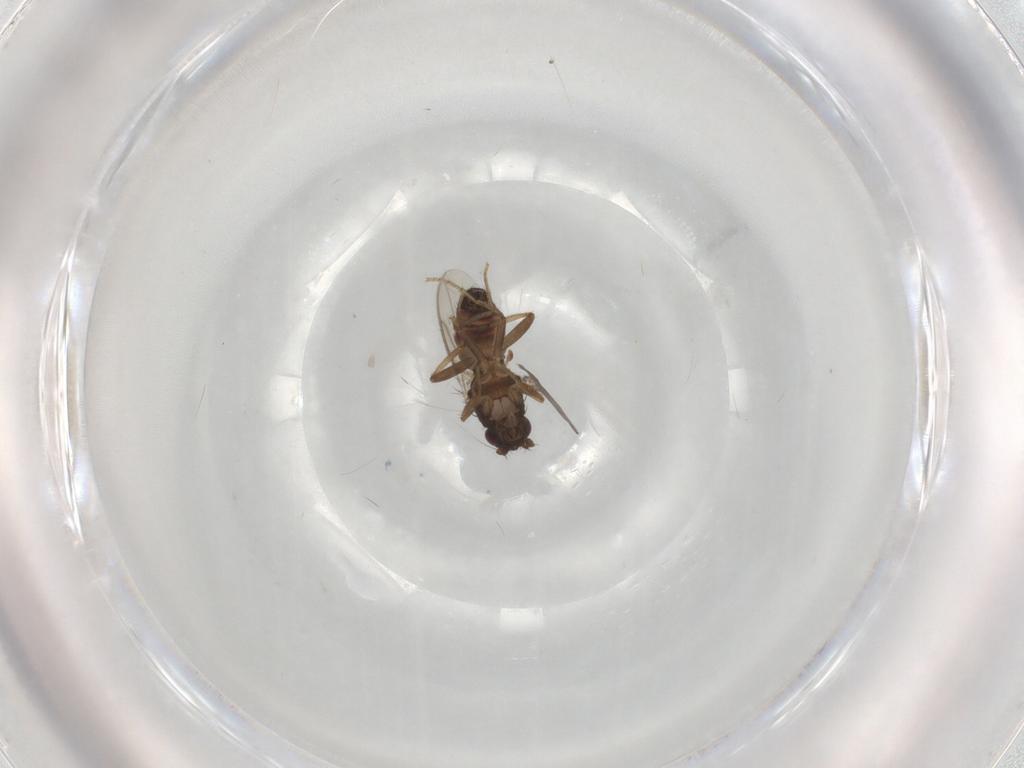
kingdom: Animalia
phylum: Arthropoda
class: Insecta
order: Diptera
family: Sphaeroceridae
